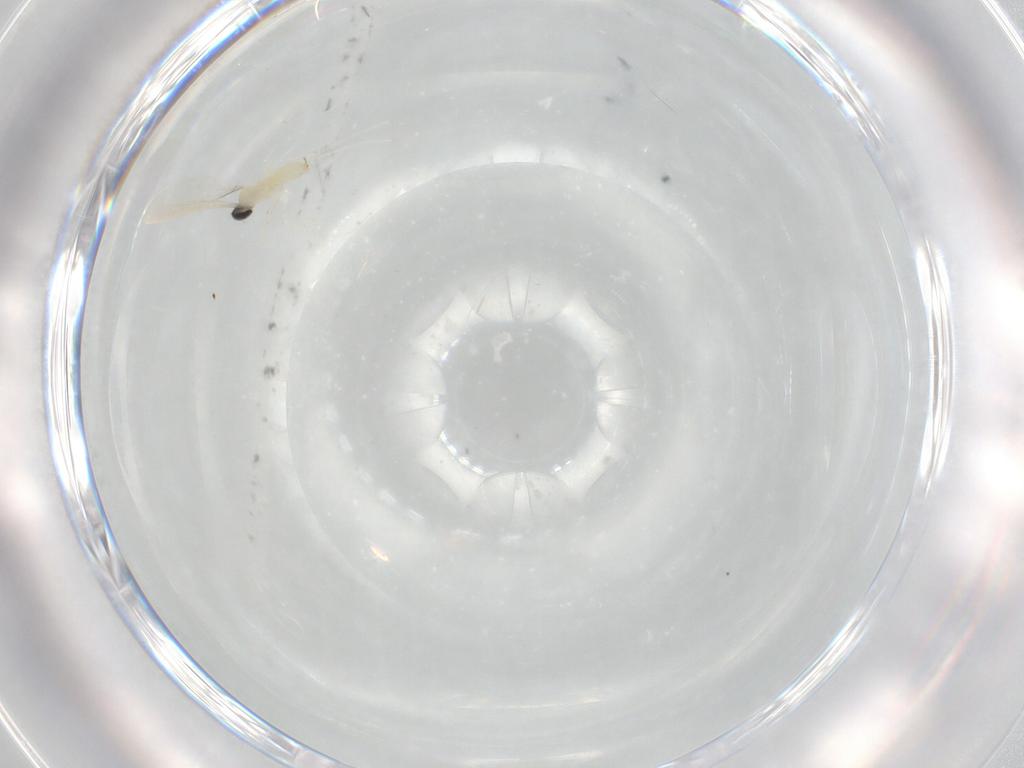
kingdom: Animalia
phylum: Arthropoda
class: Insecta
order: Diptera
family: Cecidomyiidae
